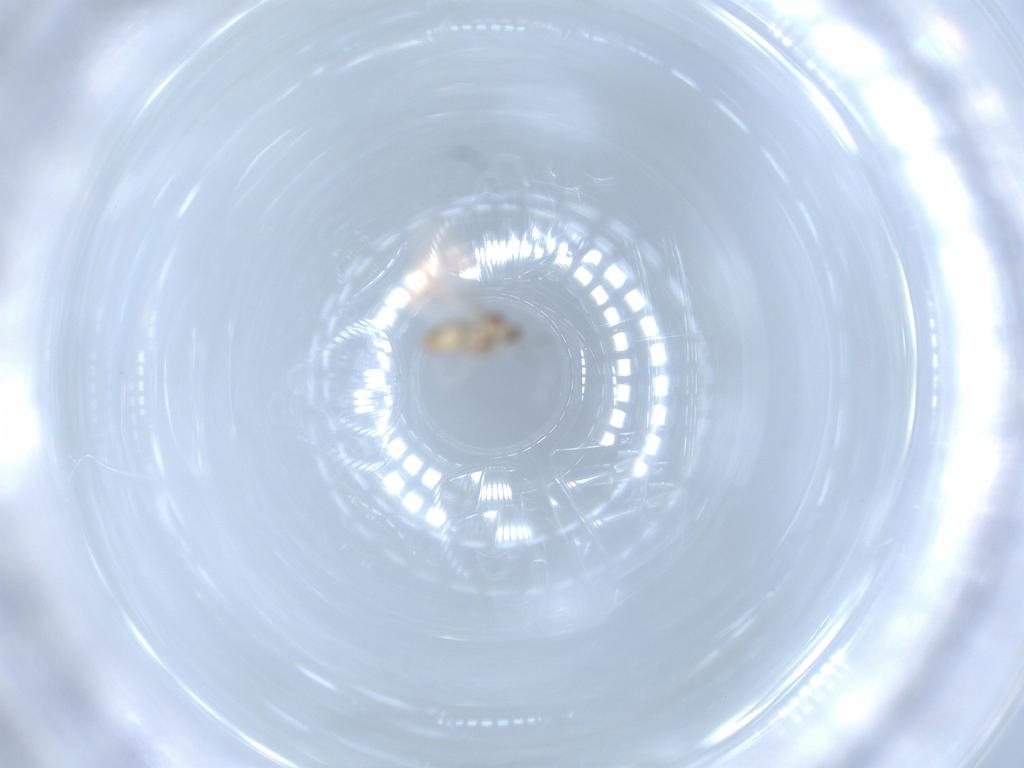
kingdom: Animalia
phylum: Arthropoda
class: Insecta
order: Diptera
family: Cecidomyiidae
